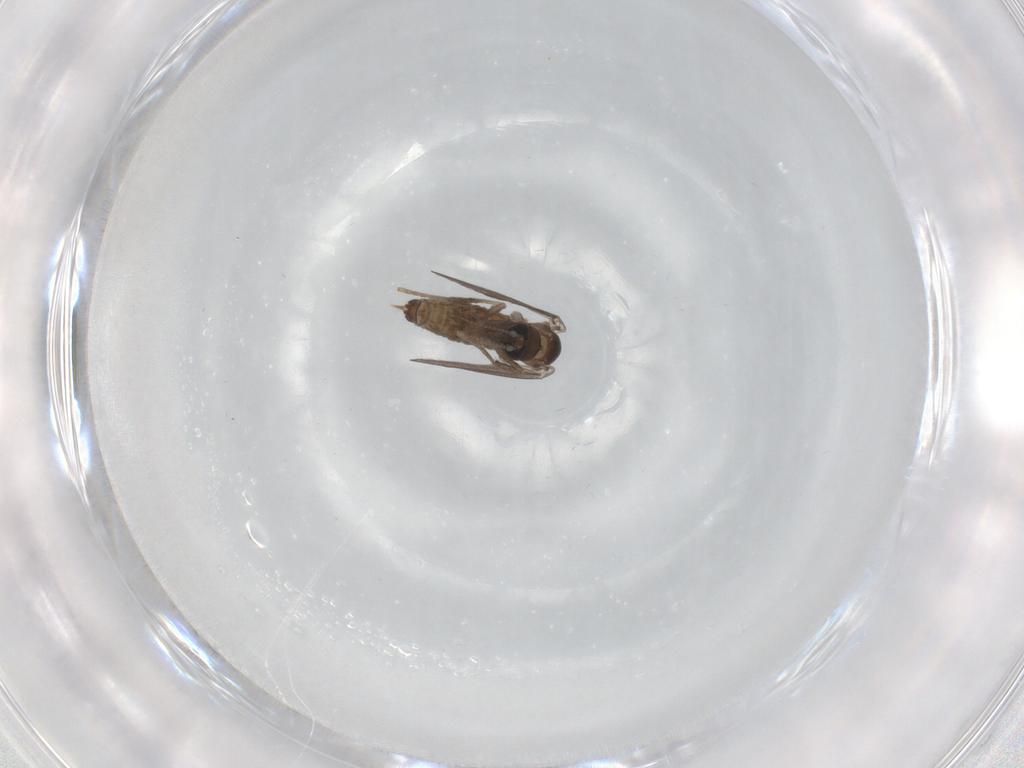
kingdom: Animalia
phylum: Arthropoda
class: Insecta
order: Diptera
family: Psychodidae
